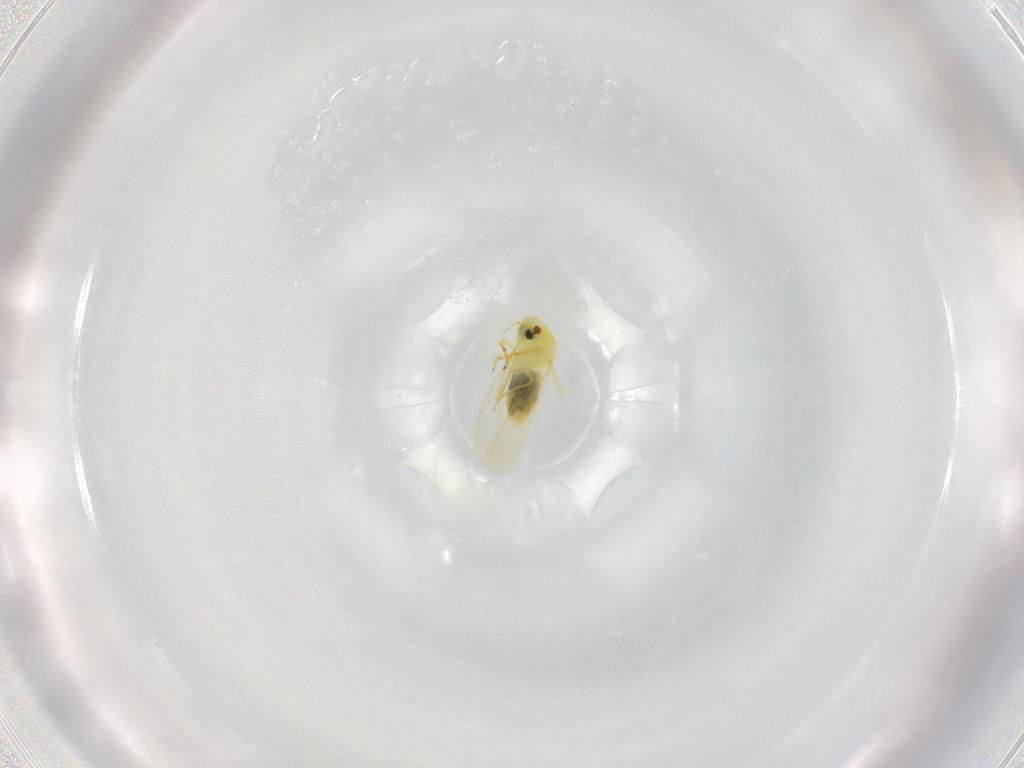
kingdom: Animalia
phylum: Arthropoda
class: Insecta
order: Hemiptera
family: Aleyrodidae
